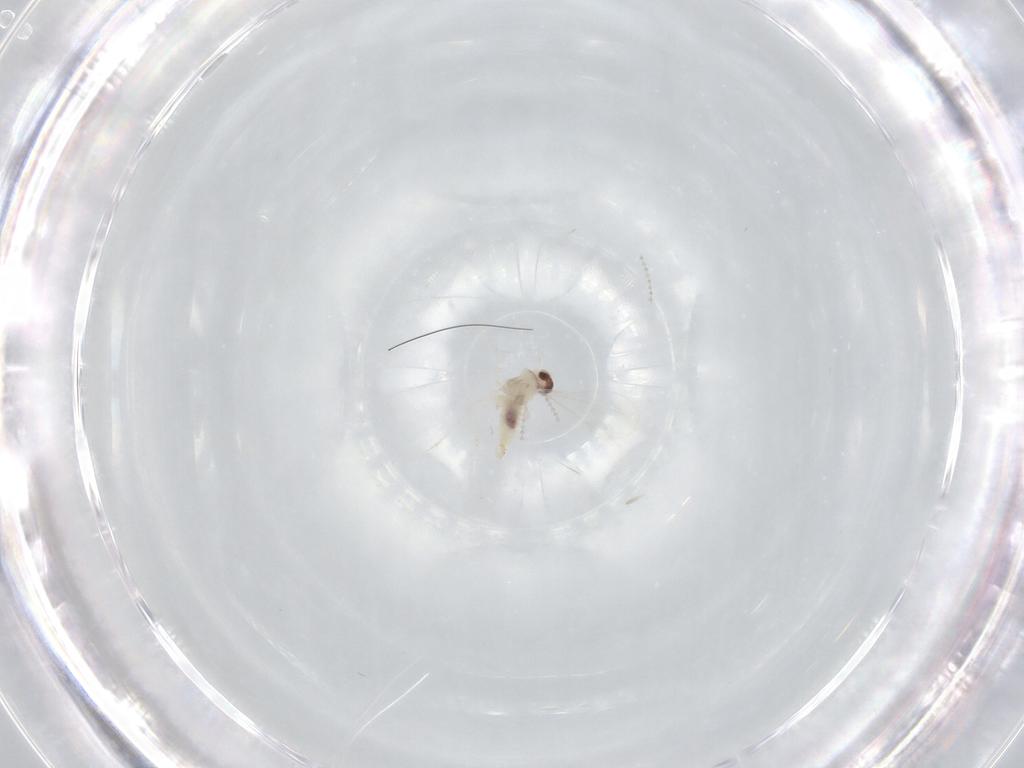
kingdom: Animalia
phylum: Arthropoda
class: Insecta
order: Diptera
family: Cecidomyiidae
